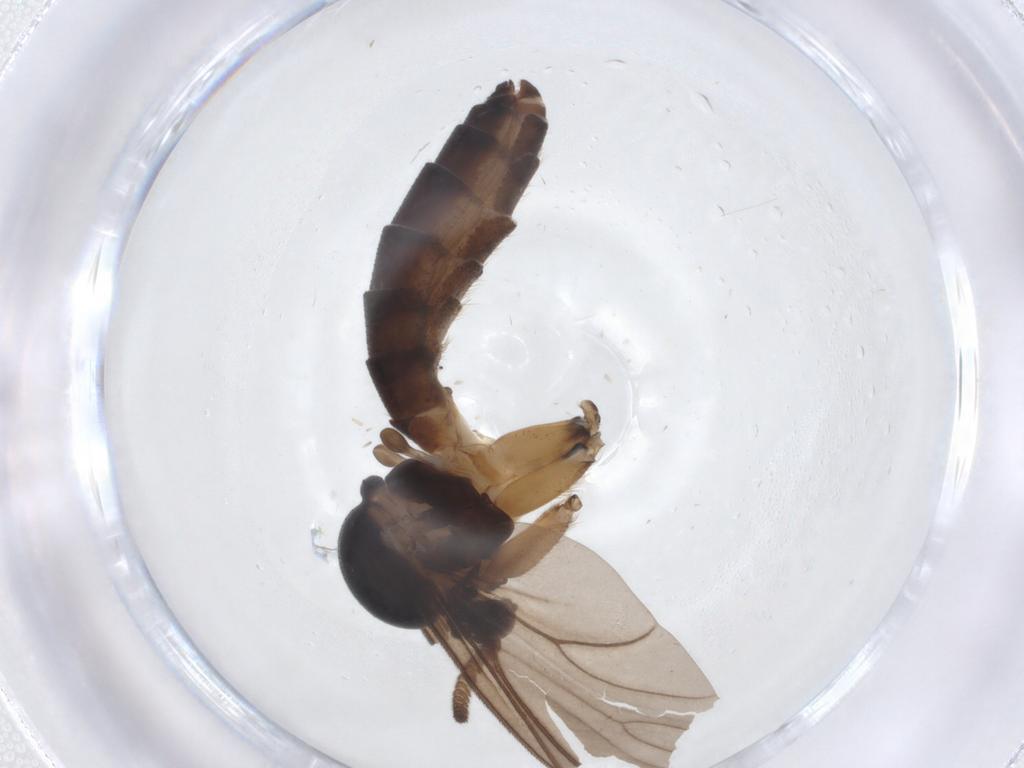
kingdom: Animalia
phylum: Arthropoda
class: Insecta
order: Diptera
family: Mycetophilidae
